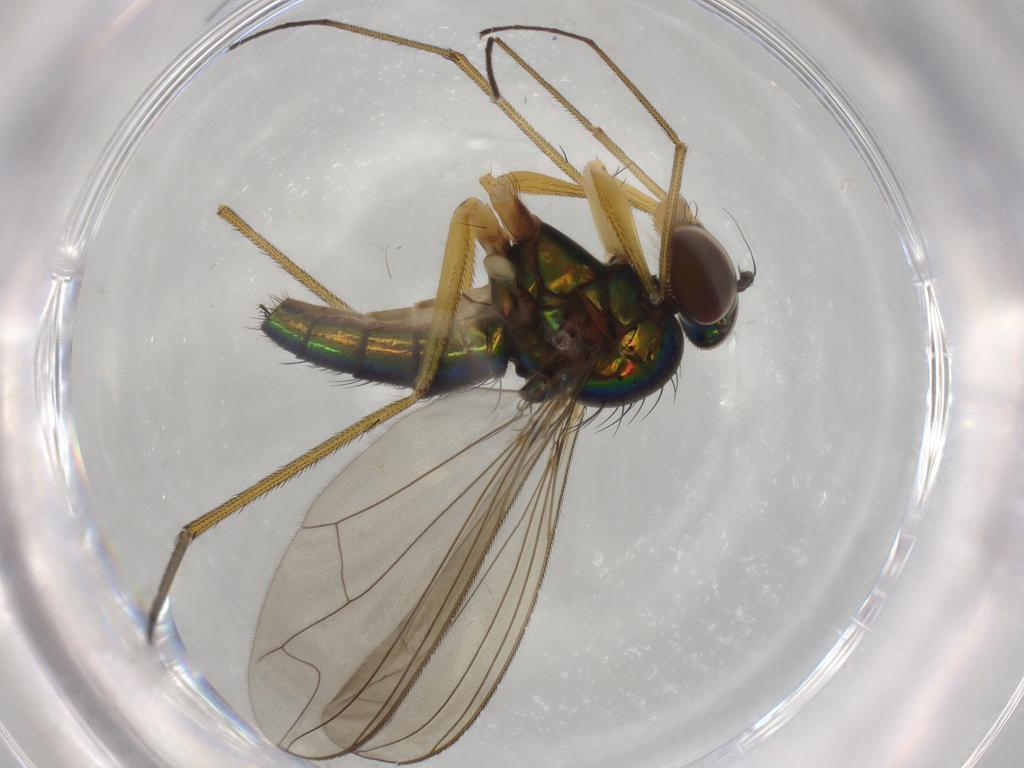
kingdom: Animalia
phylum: Arthropoda
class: Insecta
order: Diptera
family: Dolichopodidae
